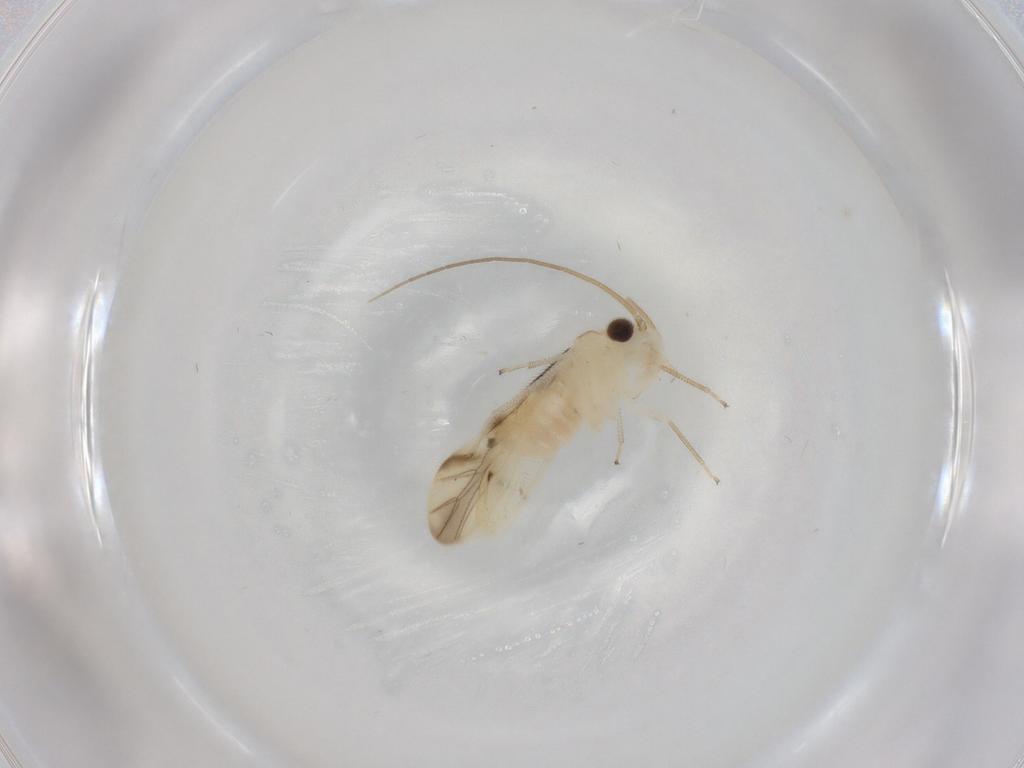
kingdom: Animalia
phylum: Arthropoda
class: Insecta
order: Psocodea
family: Caeciliusidae
